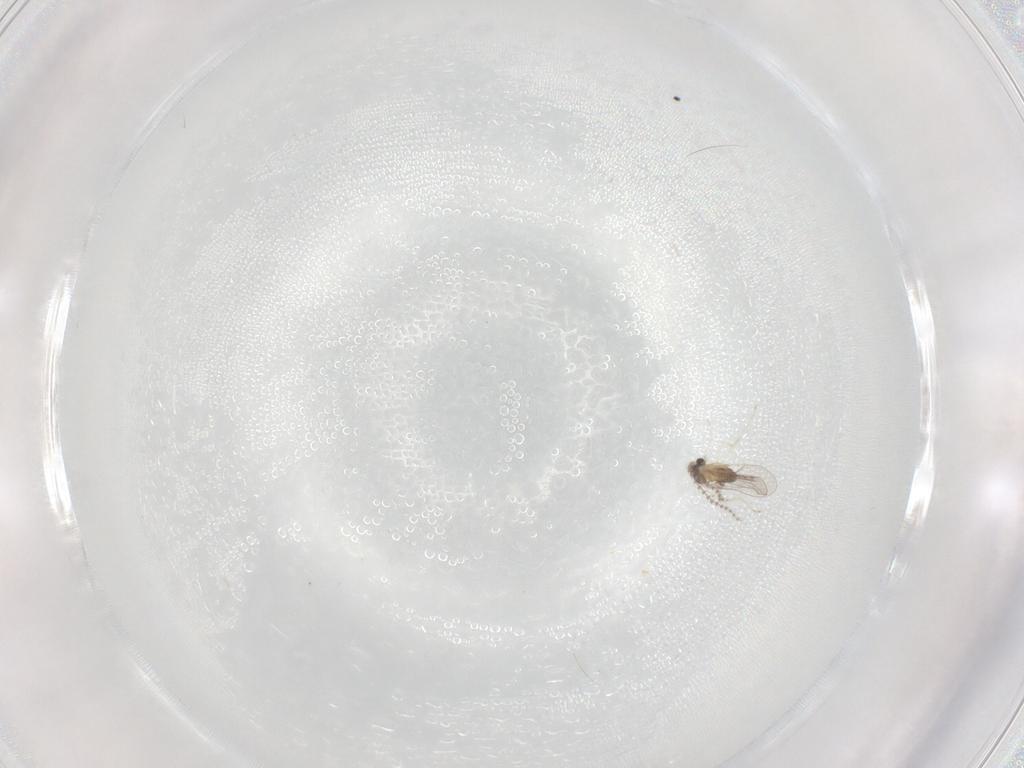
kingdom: Animalia
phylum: Arthropoda
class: Insecta
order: Diptera
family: Cecidomyiidae
